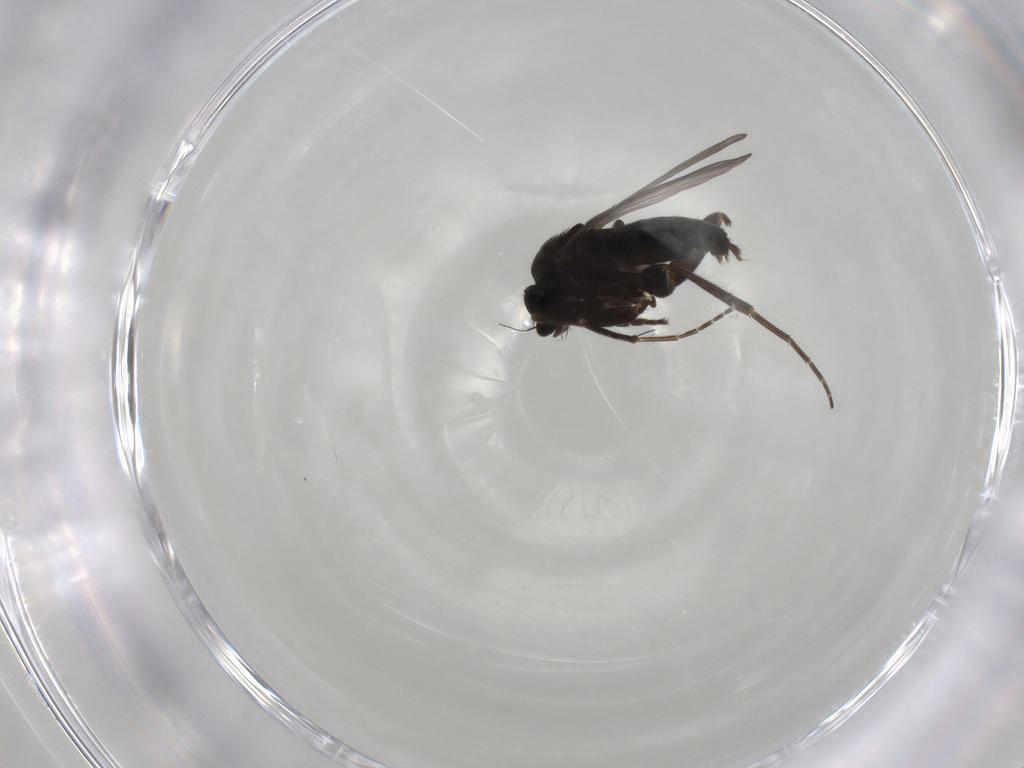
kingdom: Animalia
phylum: Arthropoda
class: Insecta
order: Diptera
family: Phoridae
